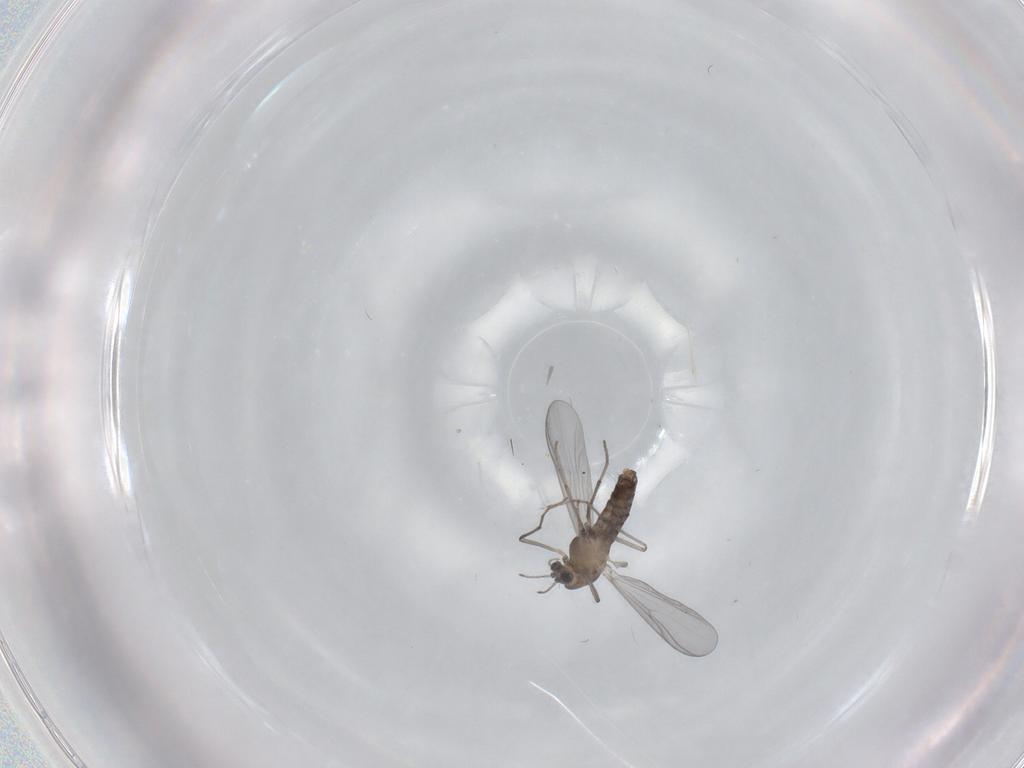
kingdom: Animalia
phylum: Arthropoda
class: Insecta
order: Diptera
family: Chironomidae
